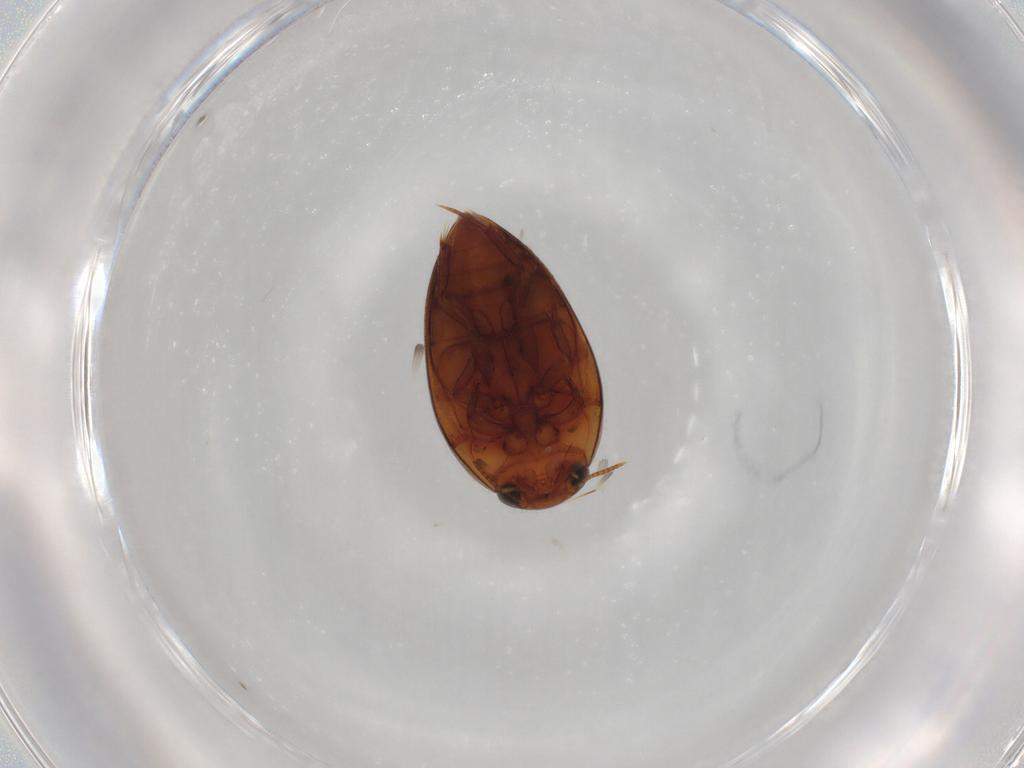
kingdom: Animalia
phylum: Arthropoda
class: Insecta
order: Coleoptera
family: Noteridae
